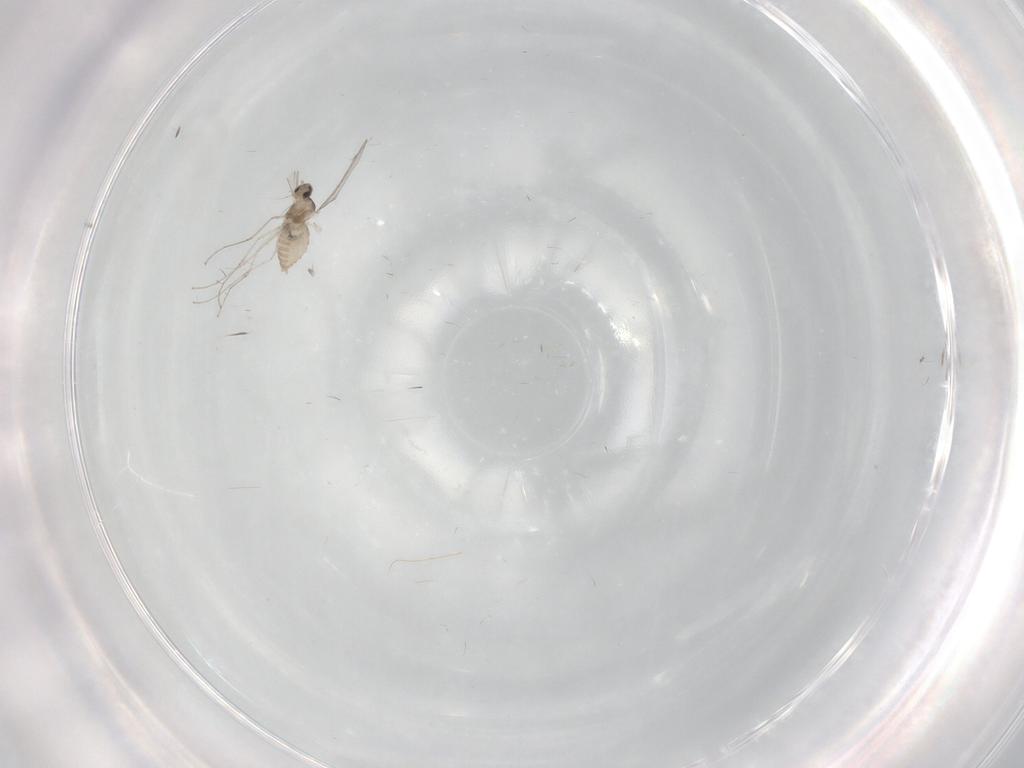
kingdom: Animalia
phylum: Arthropoda
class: Insecta
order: Diptera
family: Cecidomyiidae
